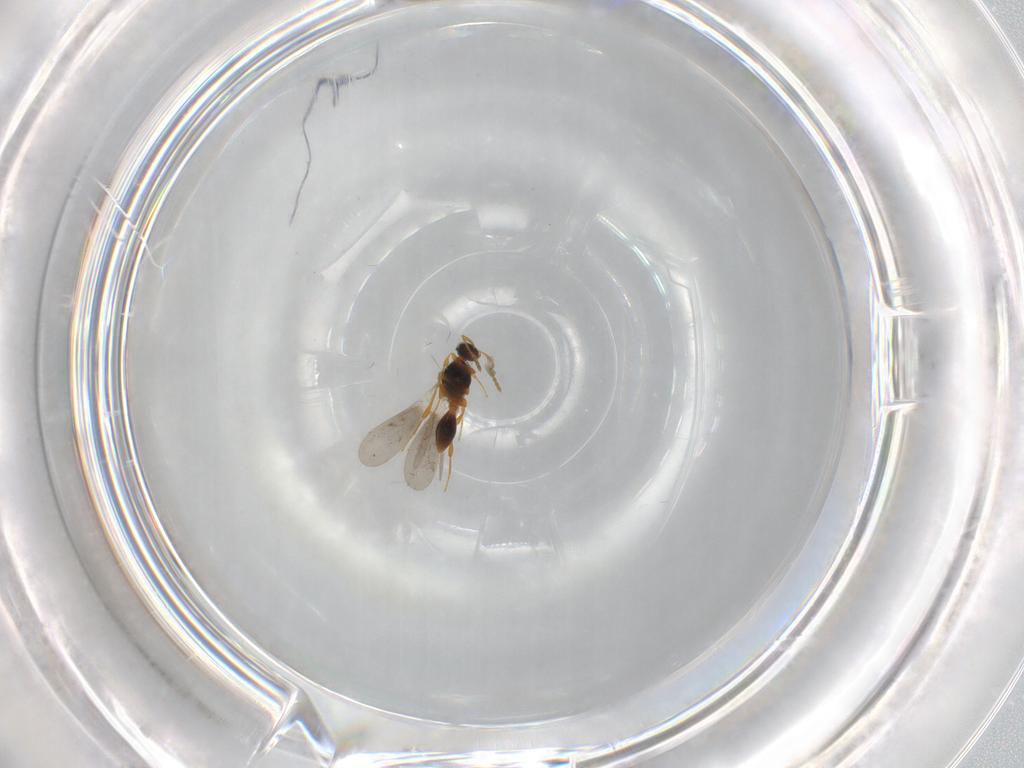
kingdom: Animalia
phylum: Arthropoda
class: Insecta
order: Hymenoptera
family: Platygastridae
